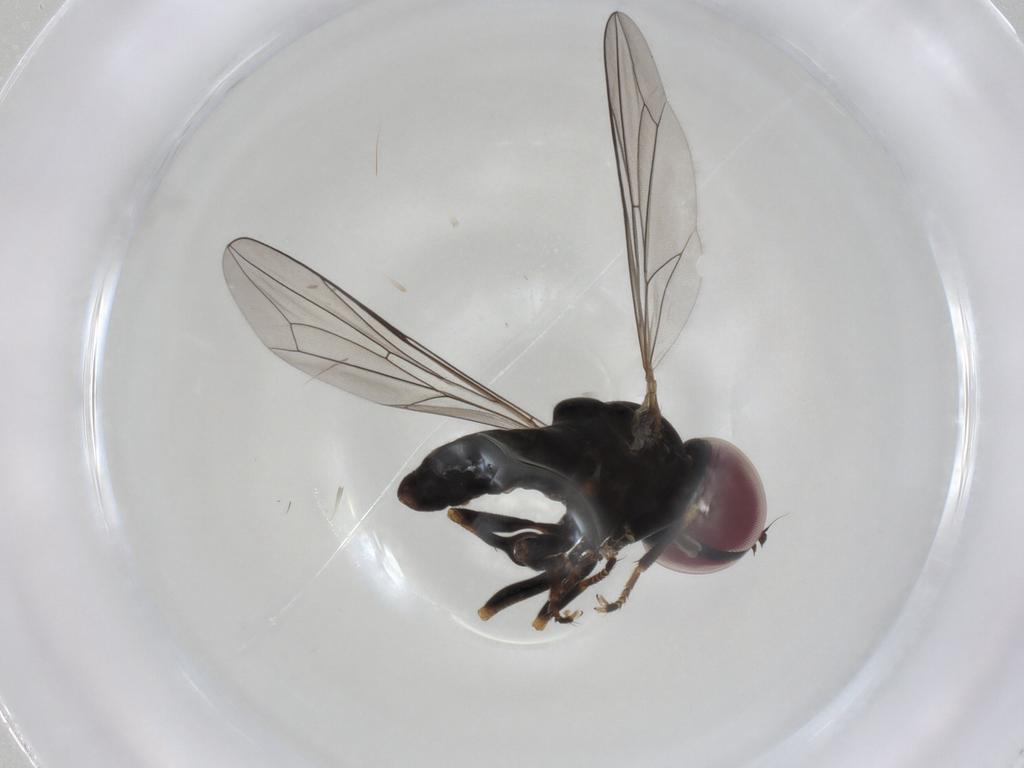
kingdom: Animalia
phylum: Arthropoda
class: Insecta
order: Diptera
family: Pipunculidae
